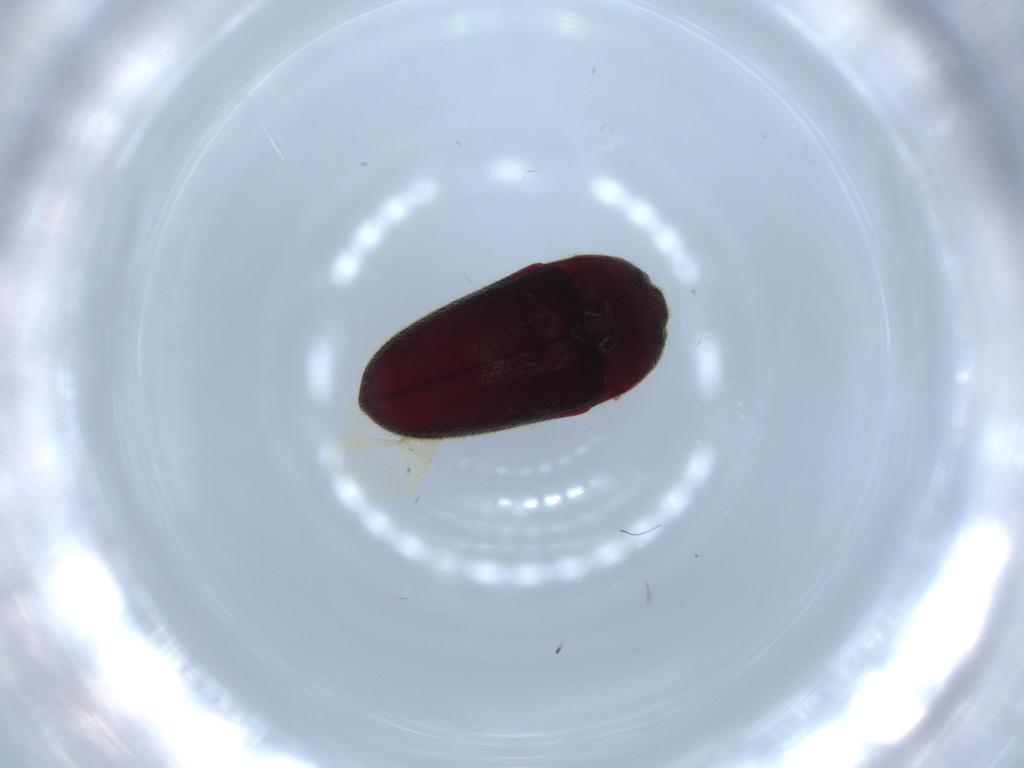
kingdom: Animalia
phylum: Arthropoda
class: Insecta
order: Coleoptera
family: Throscidae
